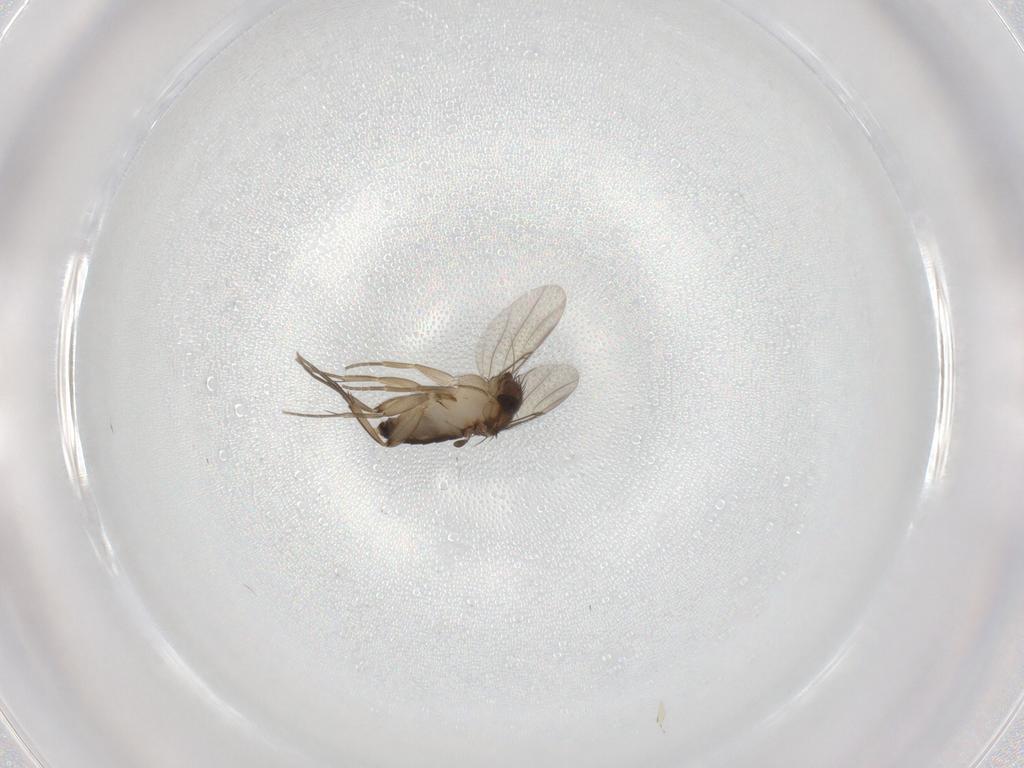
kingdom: Animalia
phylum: Arthropoda
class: Insecta
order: Diptera
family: Phoridae
